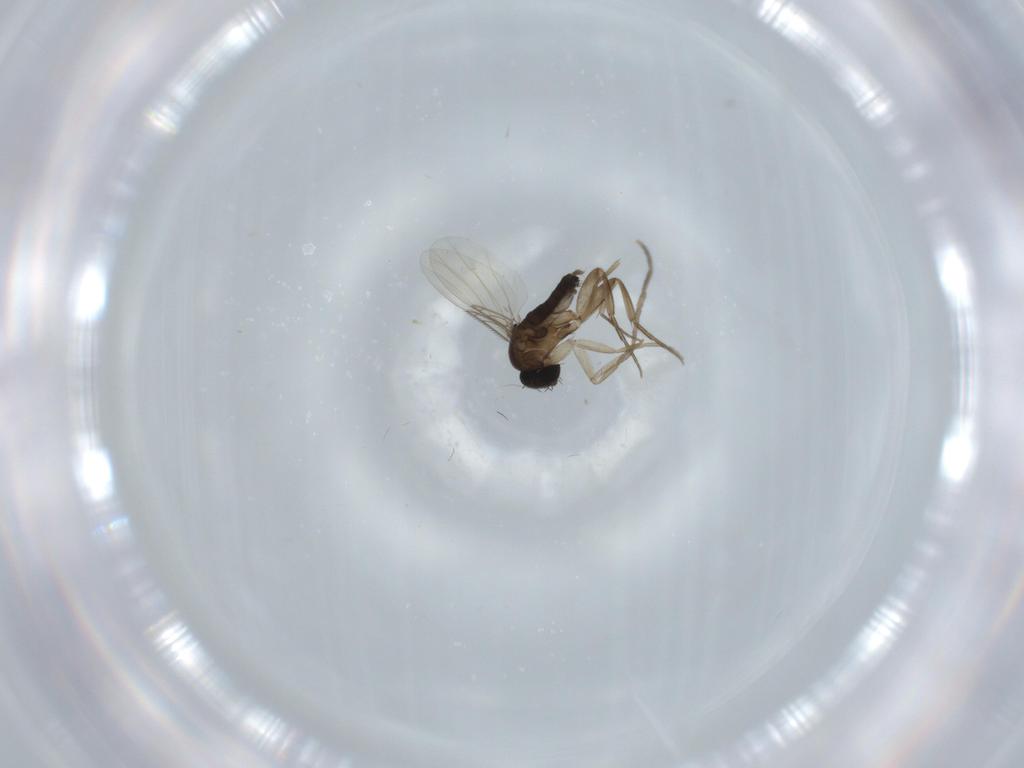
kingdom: Animalia
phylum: Arthropoda
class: Insecta
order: Diptera
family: Phoridae
